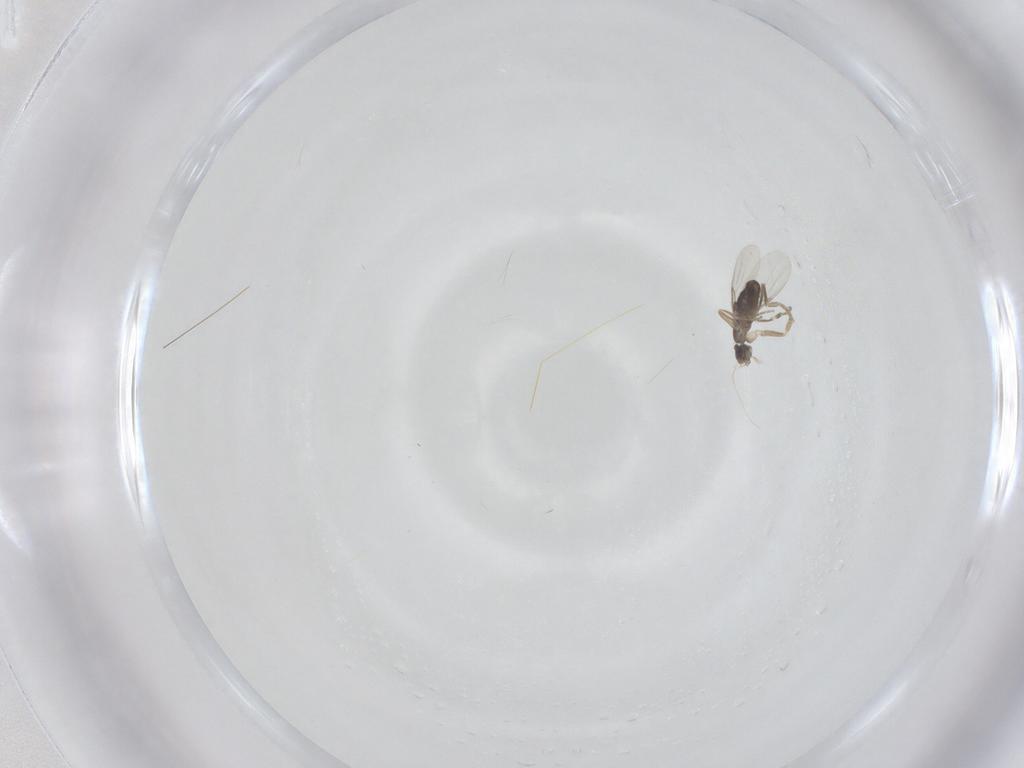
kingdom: Animalia
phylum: Arthropoda
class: Insecta
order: Diptera
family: Phoridae
